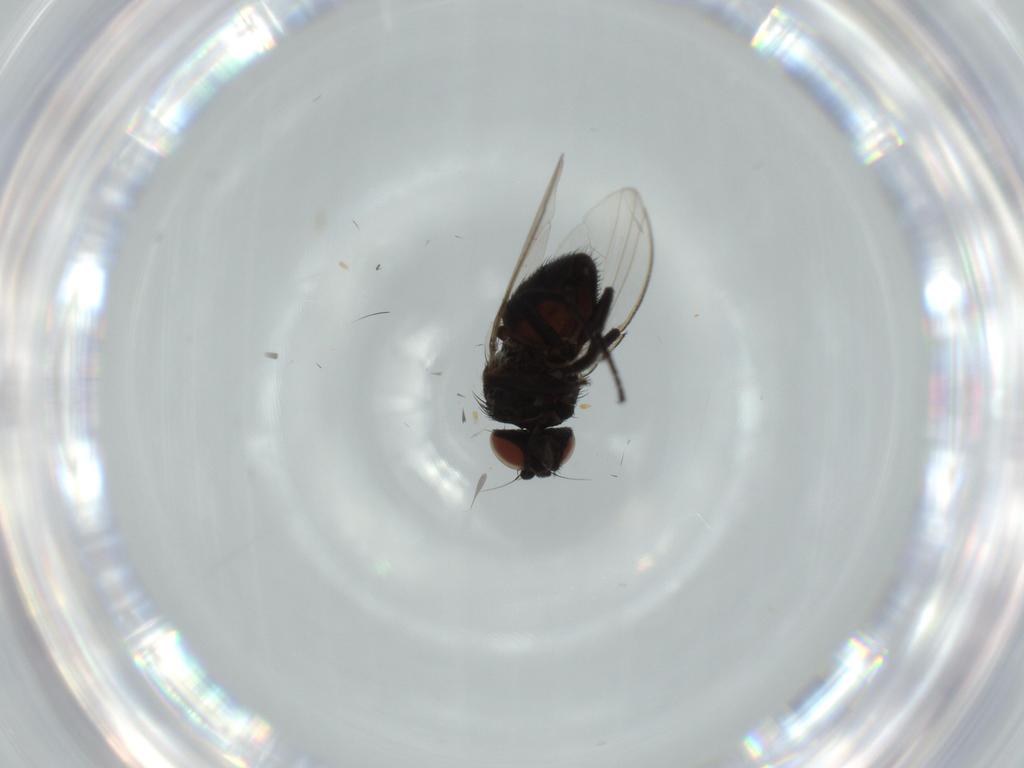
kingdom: Animalia
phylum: Arthropoda
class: Insecta
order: Diptera
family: Milichiidae
